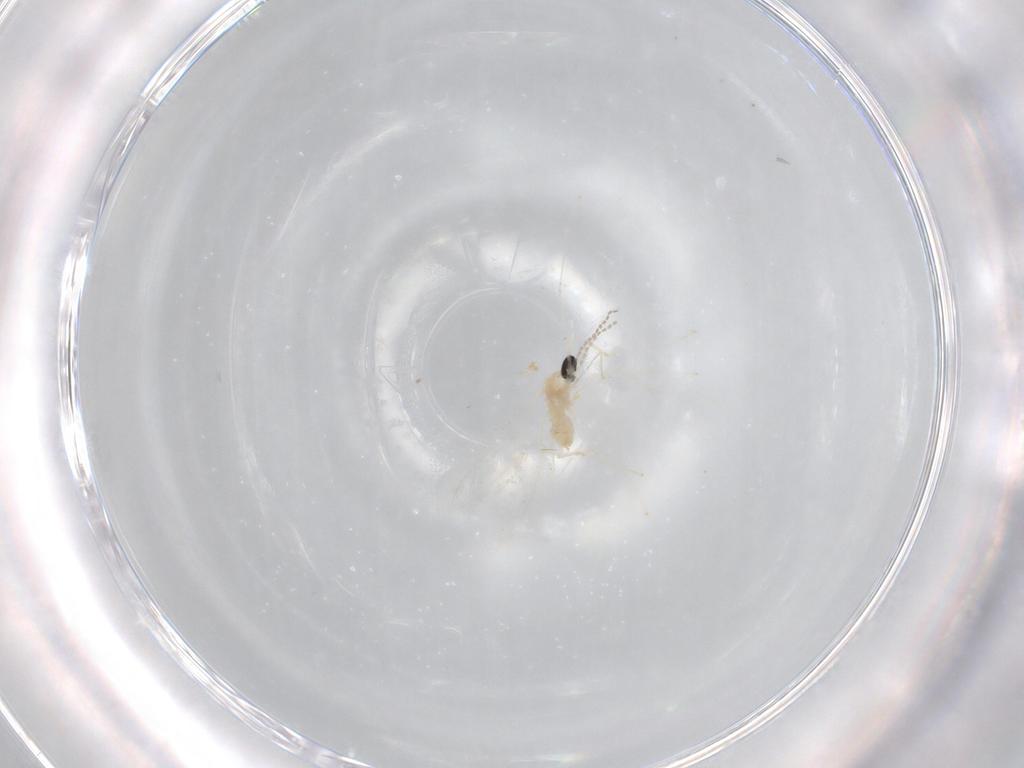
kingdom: Animalia
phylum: Arthropoda
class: Insecta
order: Diptera
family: Cecidomyiidae
